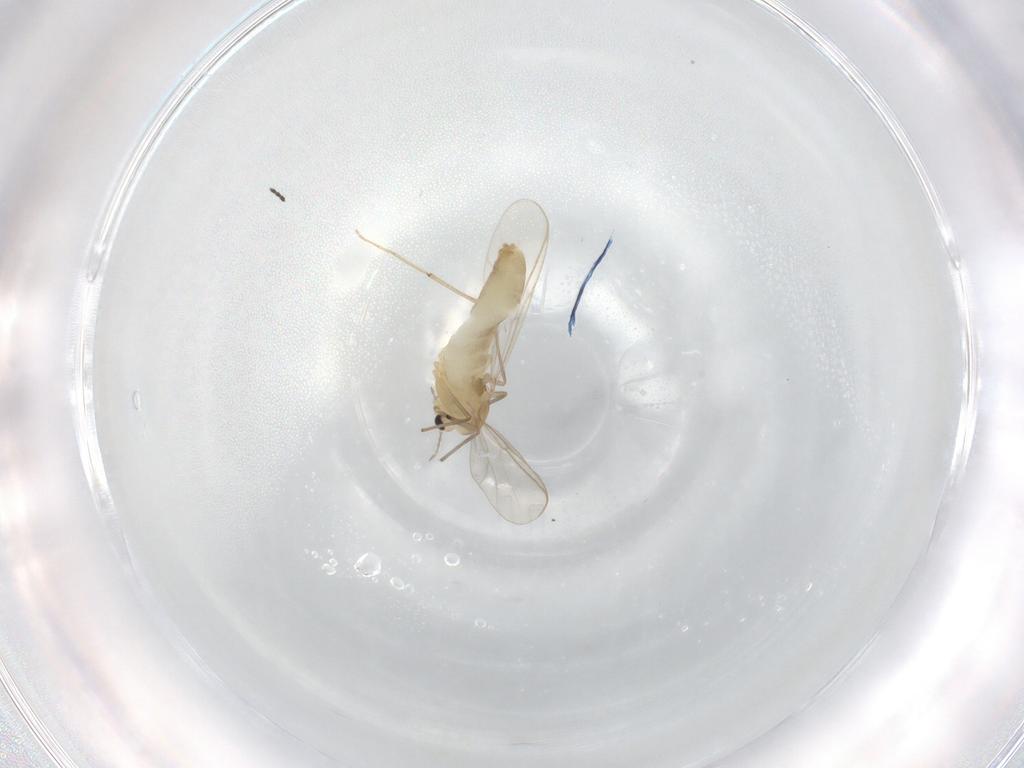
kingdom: Animalia
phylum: Arthropoda
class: Insecta
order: Diptera
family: Chironomidae
